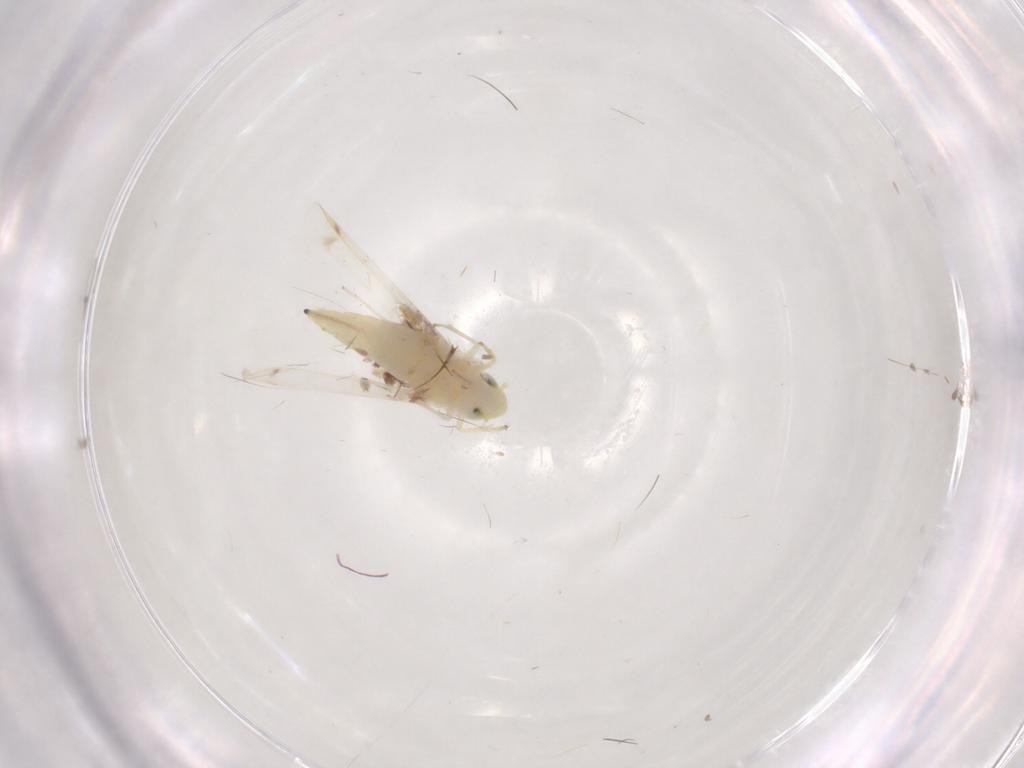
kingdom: Animalia
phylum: Arthropoda
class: Insecta
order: Hemiptera
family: Cicadellidae
